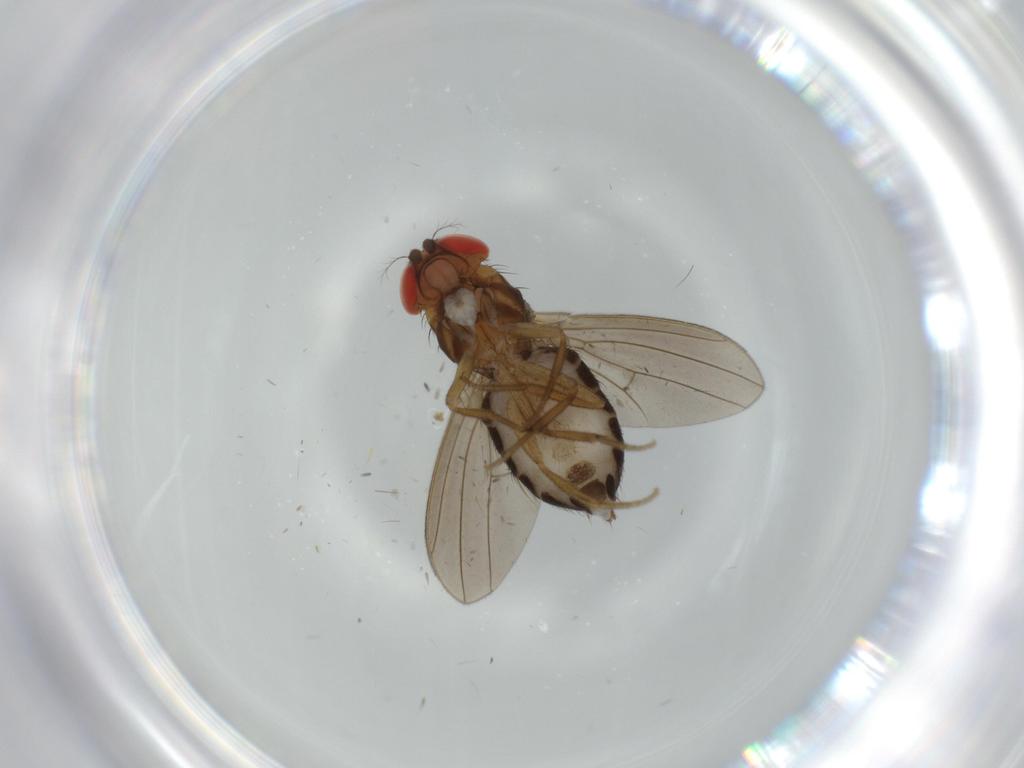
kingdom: Animalia
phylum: Arthropoda
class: Insecta
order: Diptera
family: Drosophilidae
